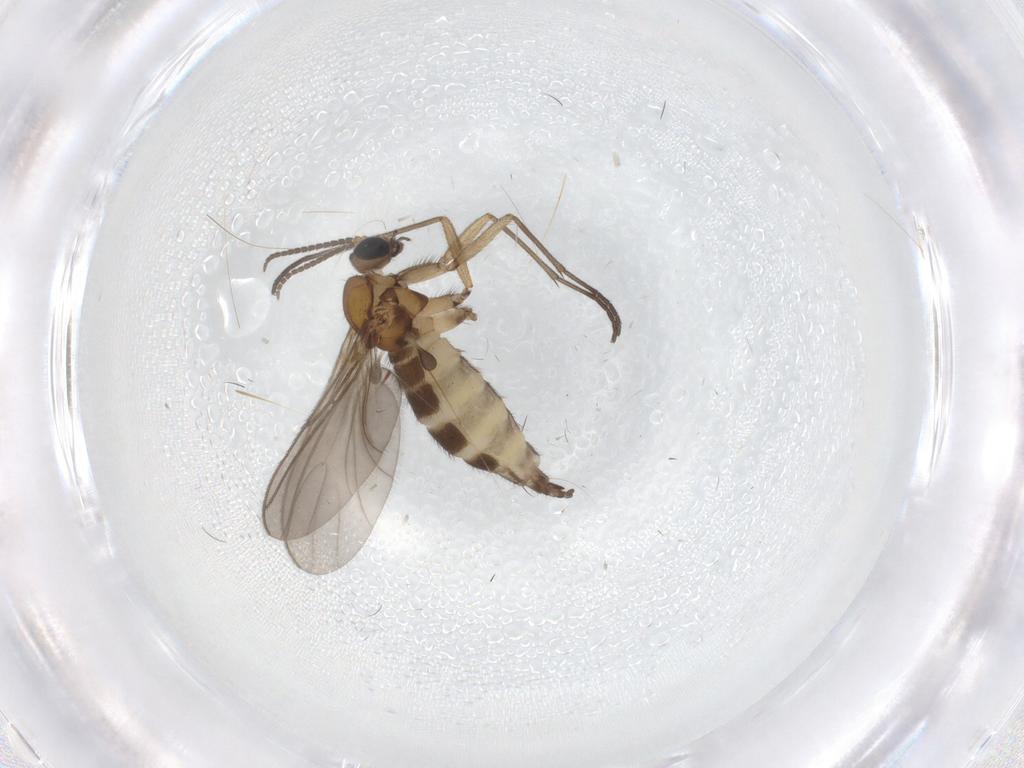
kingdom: Animalia
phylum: Arthropoda
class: Insecta
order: Diptera
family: Sciaridae
